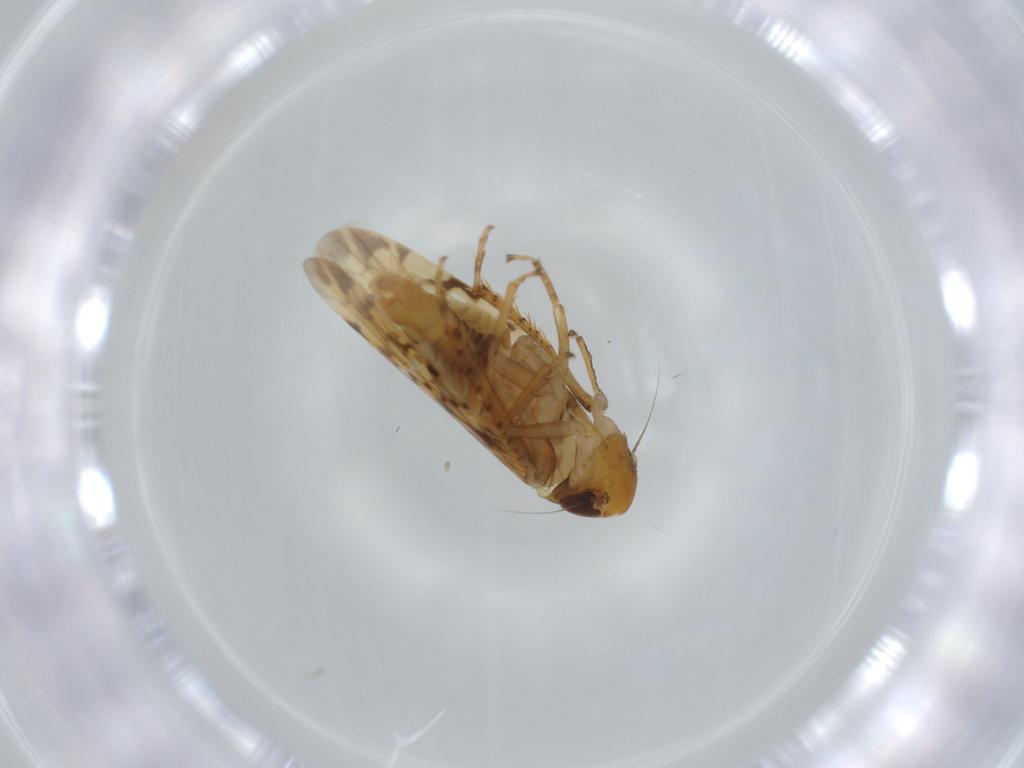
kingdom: Animalia
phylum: Arthropoda
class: Insecta
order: Hemiptera
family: Cicadellidae
